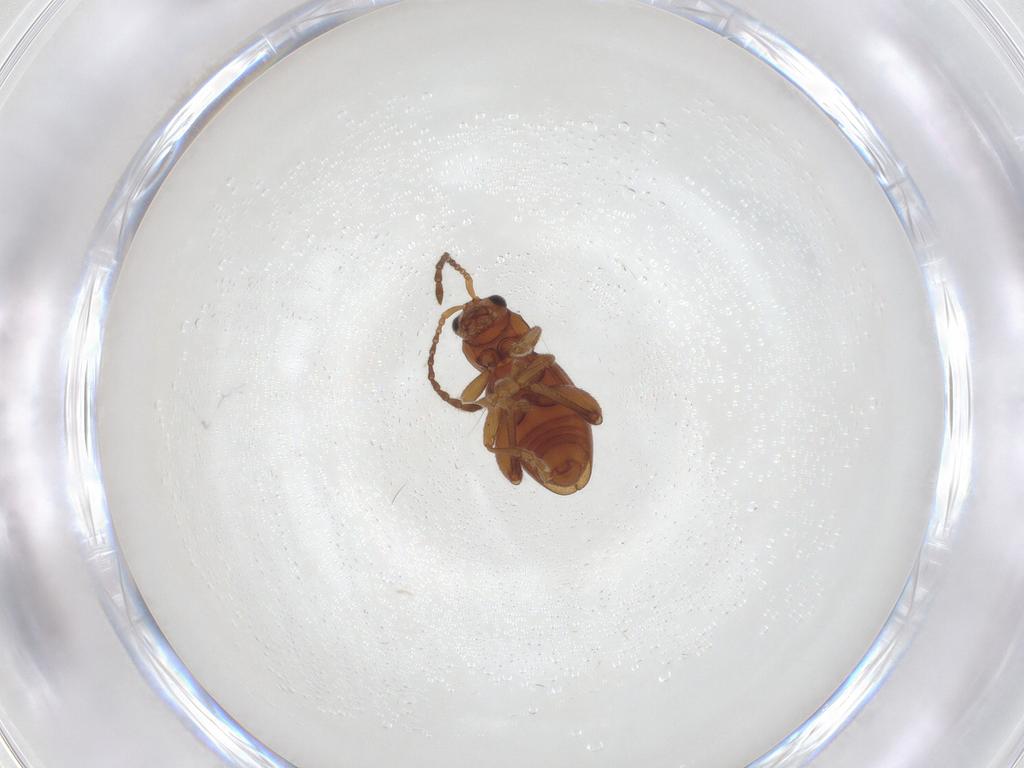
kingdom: Animalia
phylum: Arthropoda
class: Insecta
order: Coleoptera
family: Chrysomelidae
